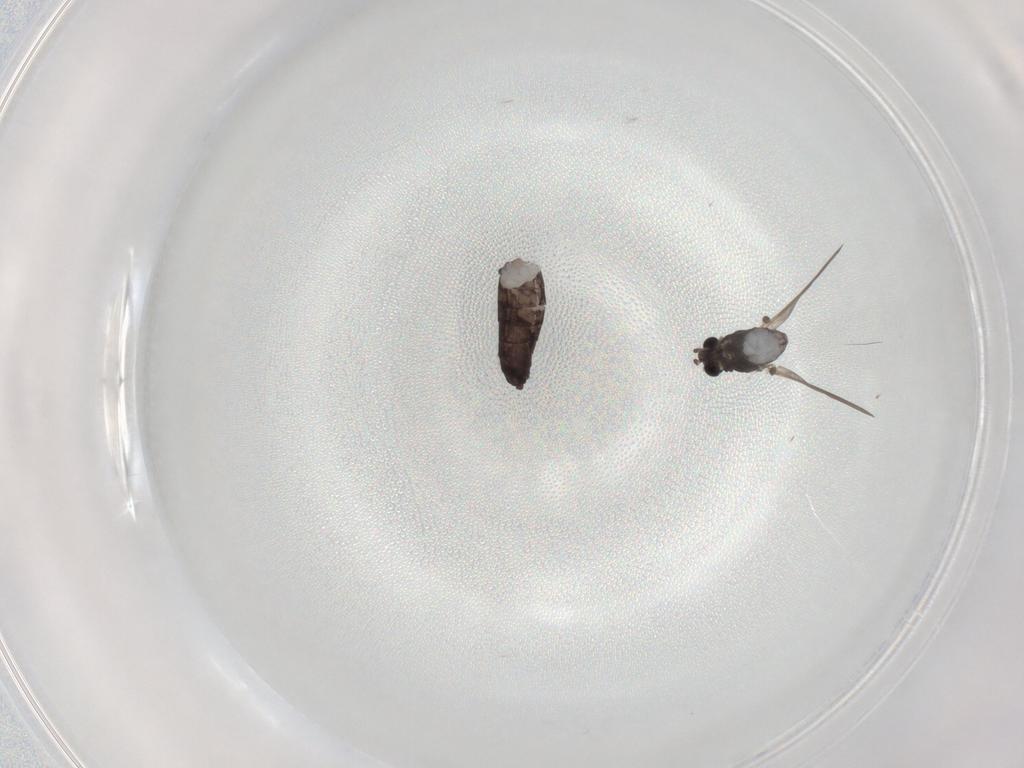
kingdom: Animalia
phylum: Arthropoda
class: Insecta
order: Diptera
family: Chironomidae
